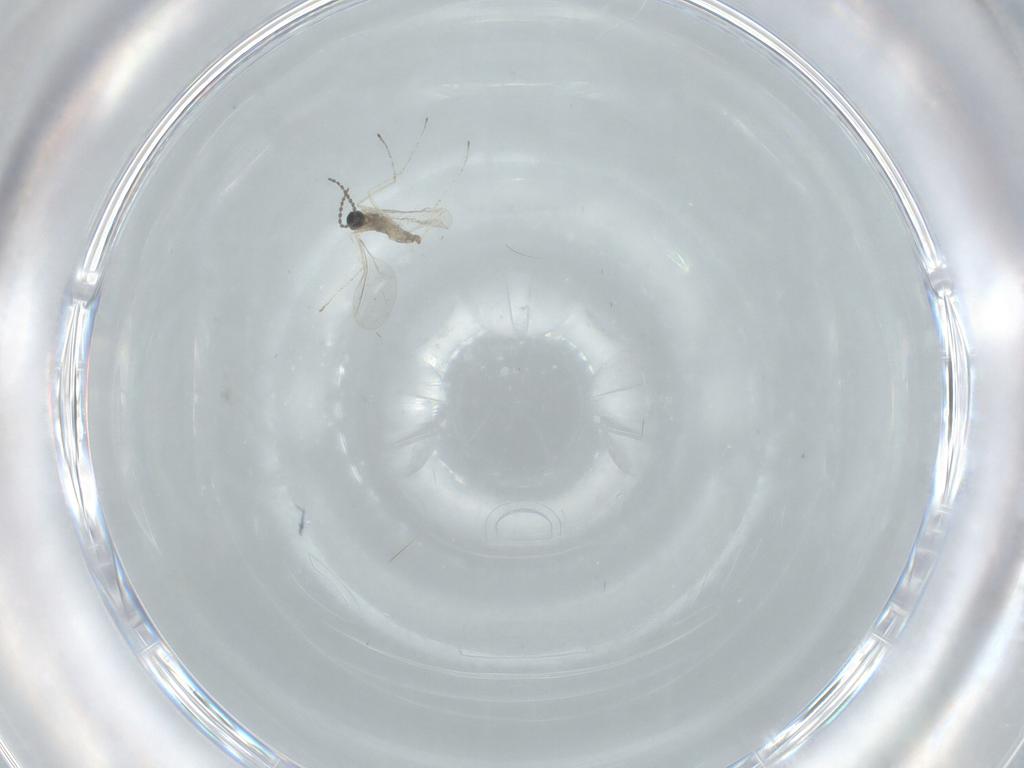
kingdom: Animalia
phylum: Arthropoda
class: Insecta
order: Diptera
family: Cecidomyiidae
